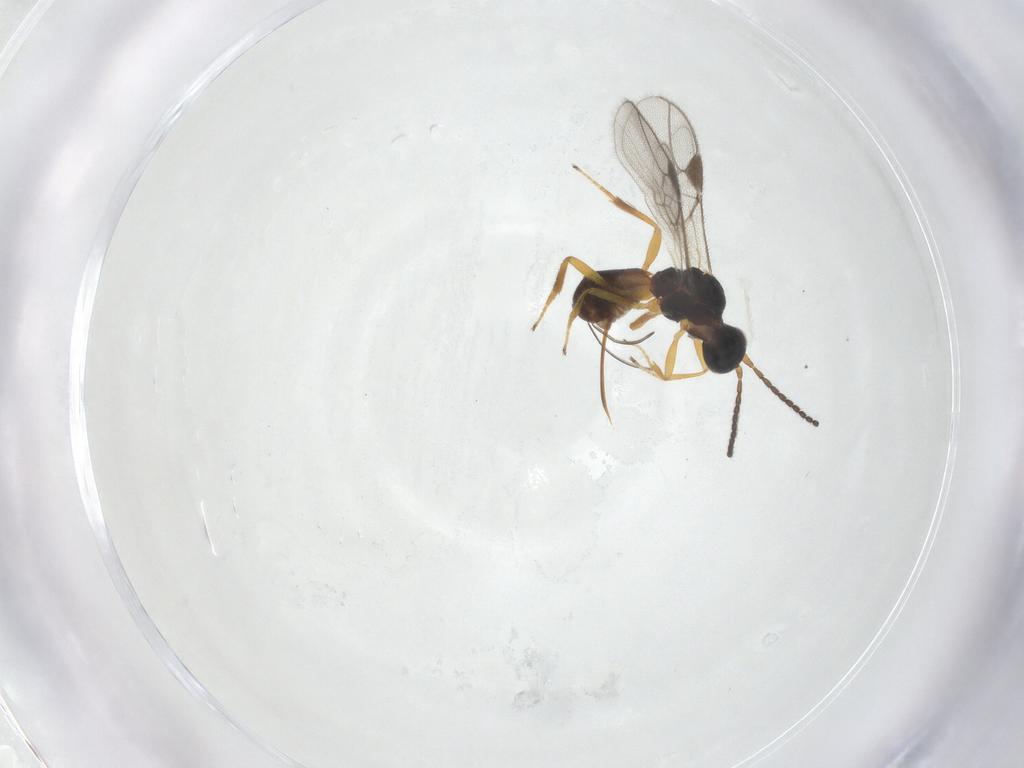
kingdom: Animalia
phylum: Arthropoda
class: Insecta
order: Hymenoptera
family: Braconidae
